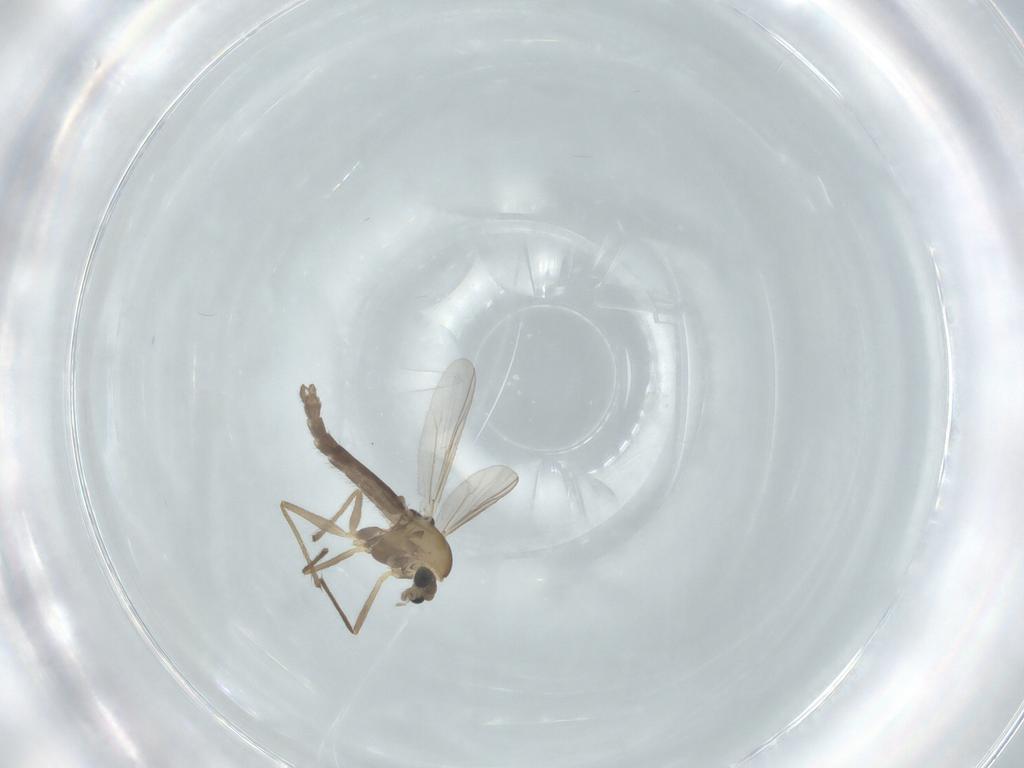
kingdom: Animalia
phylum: Arthropoda
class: Insecta
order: Diptera
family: Chironomidae
